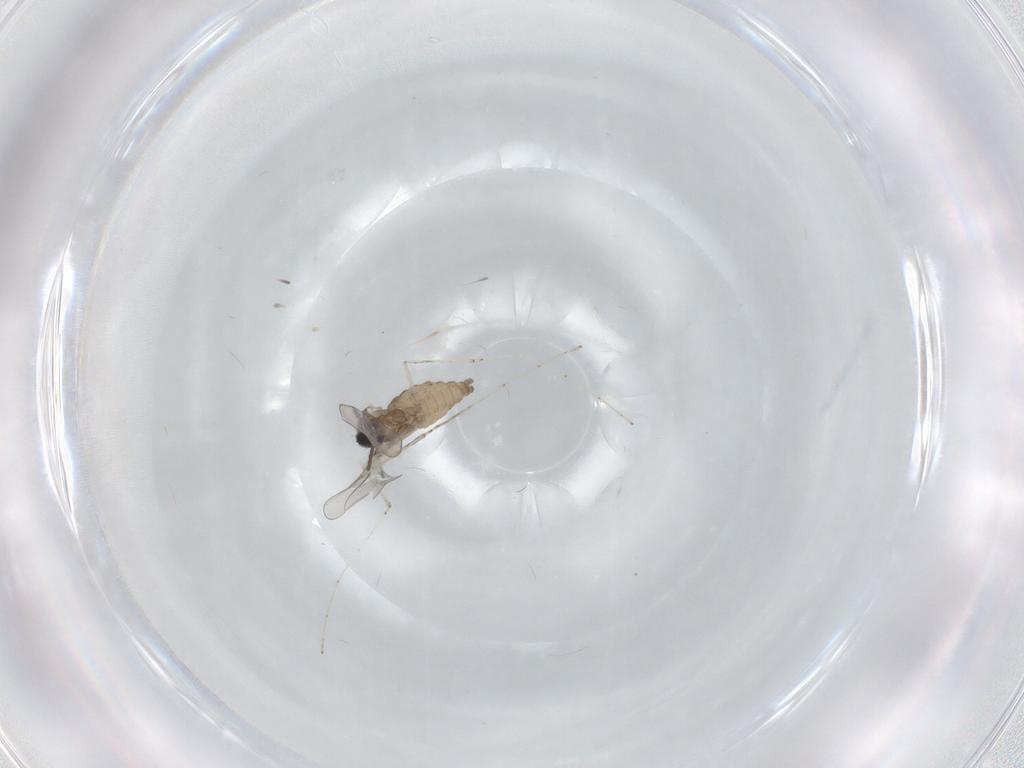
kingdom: Animalia
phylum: Arthropoda
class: Insecta
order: Diptera
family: Cecidomyiidae
